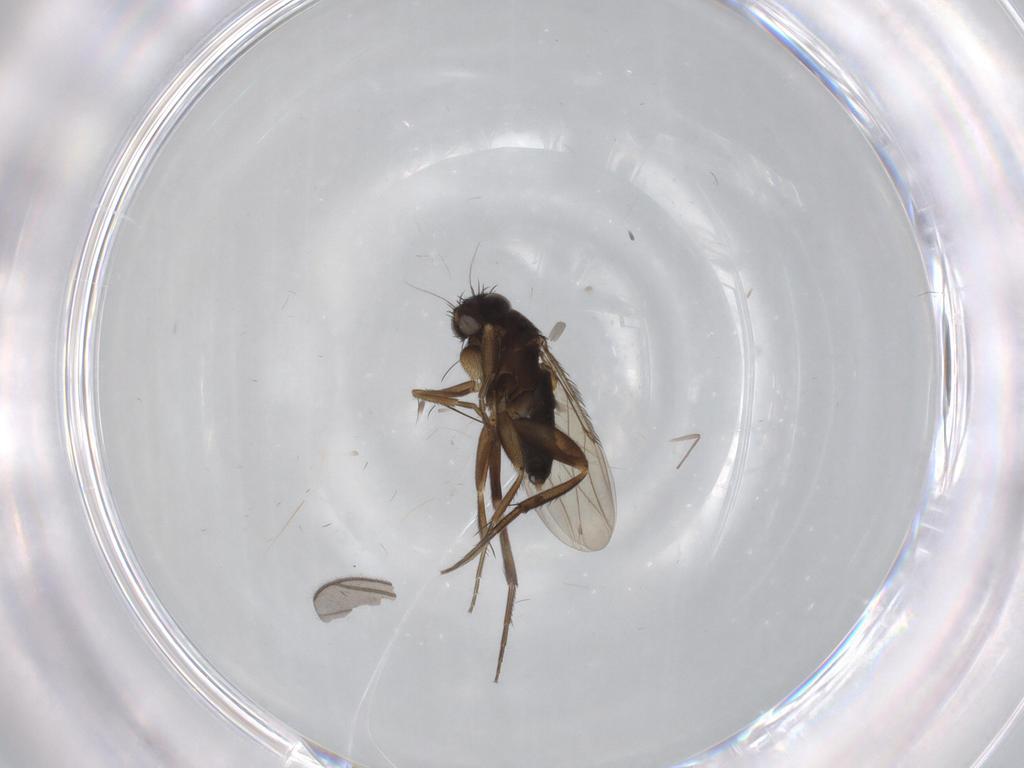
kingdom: Animalia
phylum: Arthropoda
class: Insecta
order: Diptera
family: Phoridae
